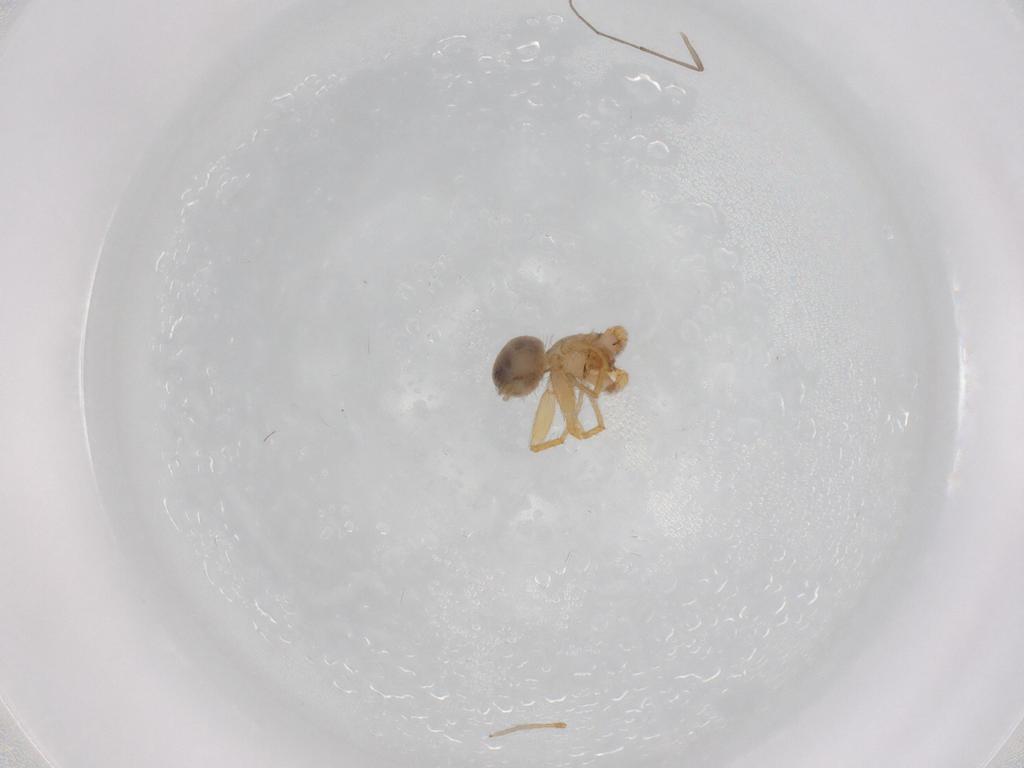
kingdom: Animalia
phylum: Arthropoda
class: Arachnida
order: Araneae
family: Oonopidae
